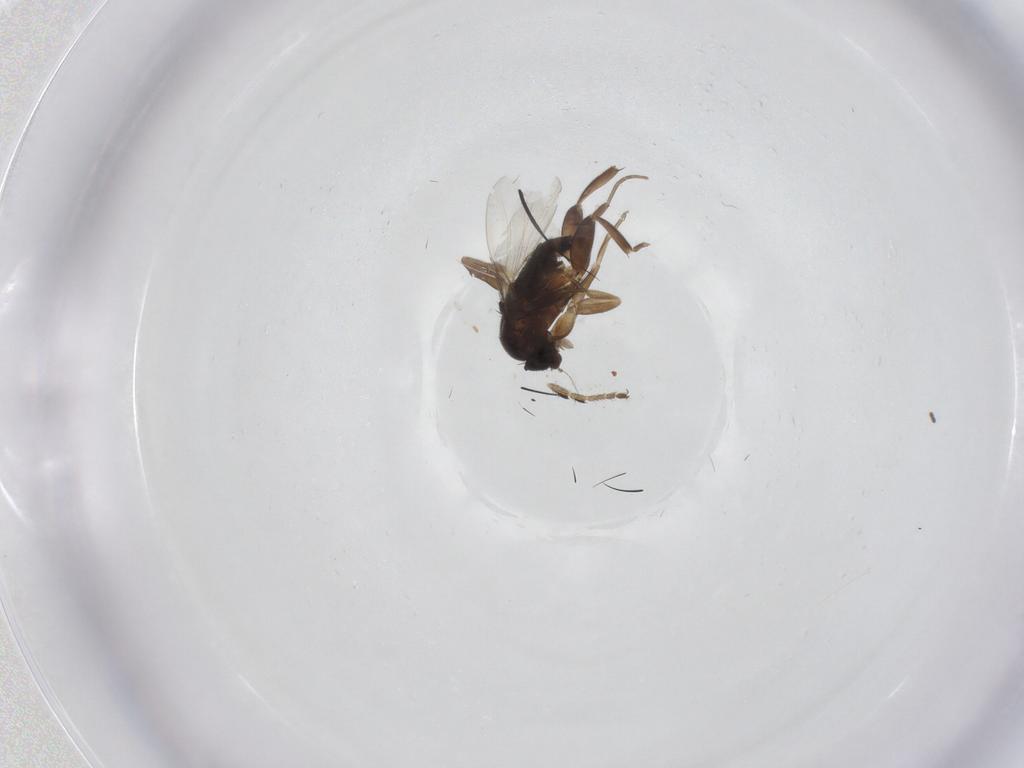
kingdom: Animalia
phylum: Arthropoda
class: Insecta
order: Diptera
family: Phoridae
